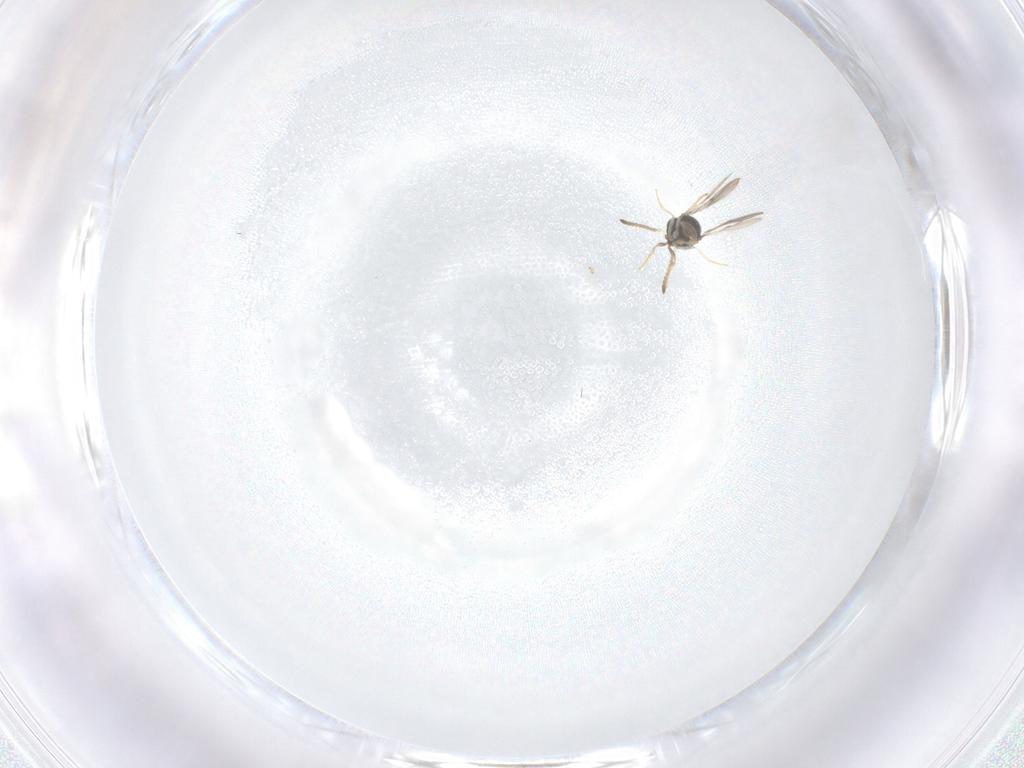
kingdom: Animalia
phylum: Arthropoda
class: Insecta
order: Hymenoptera
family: Scelionidae
